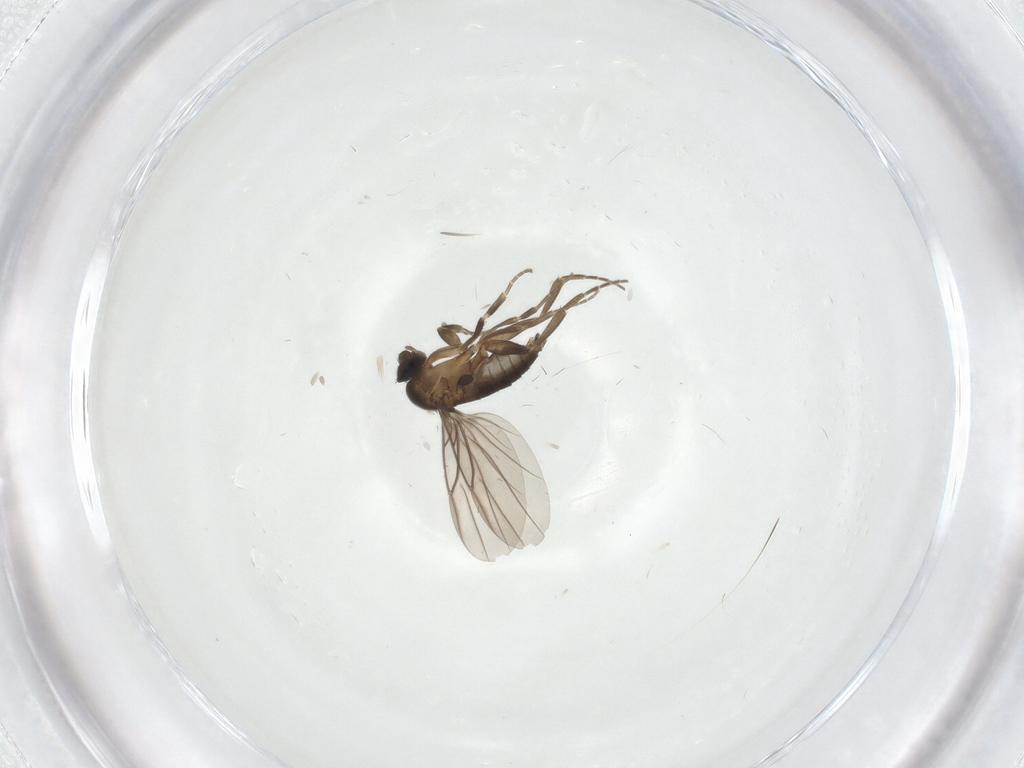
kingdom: Animalia
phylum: Arthropoda
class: Insecta
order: Diptera
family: Phoridae
